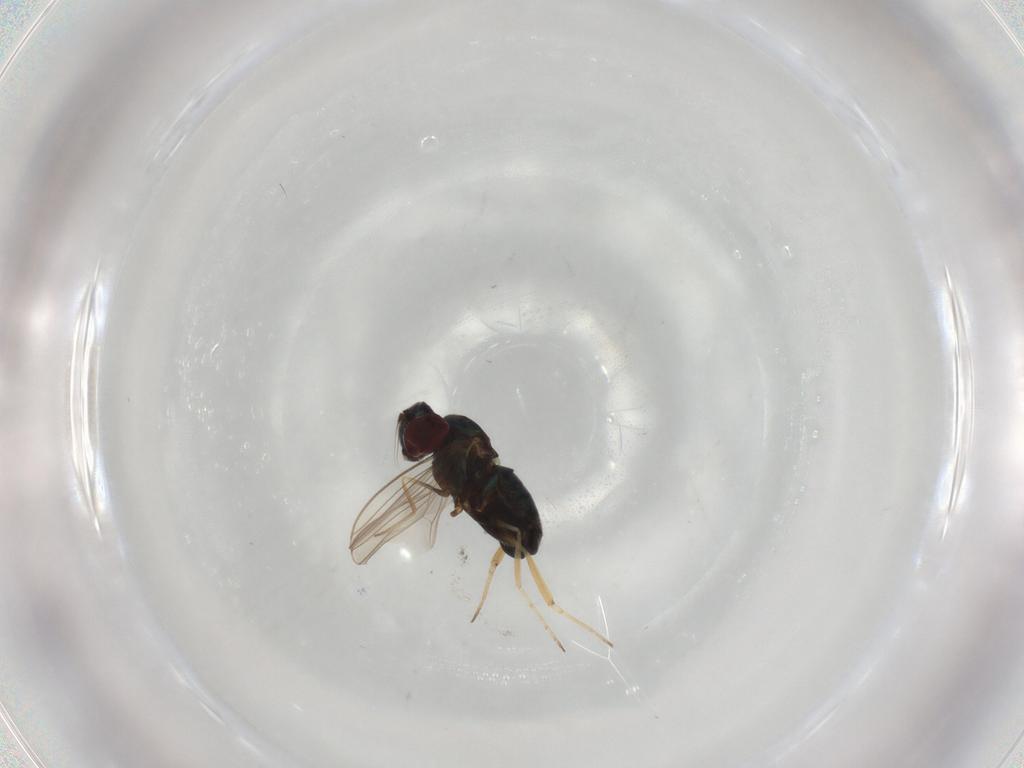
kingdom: Animalia
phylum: Arthropoda
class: Insecta
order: Diptera
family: Dolichopodidae
